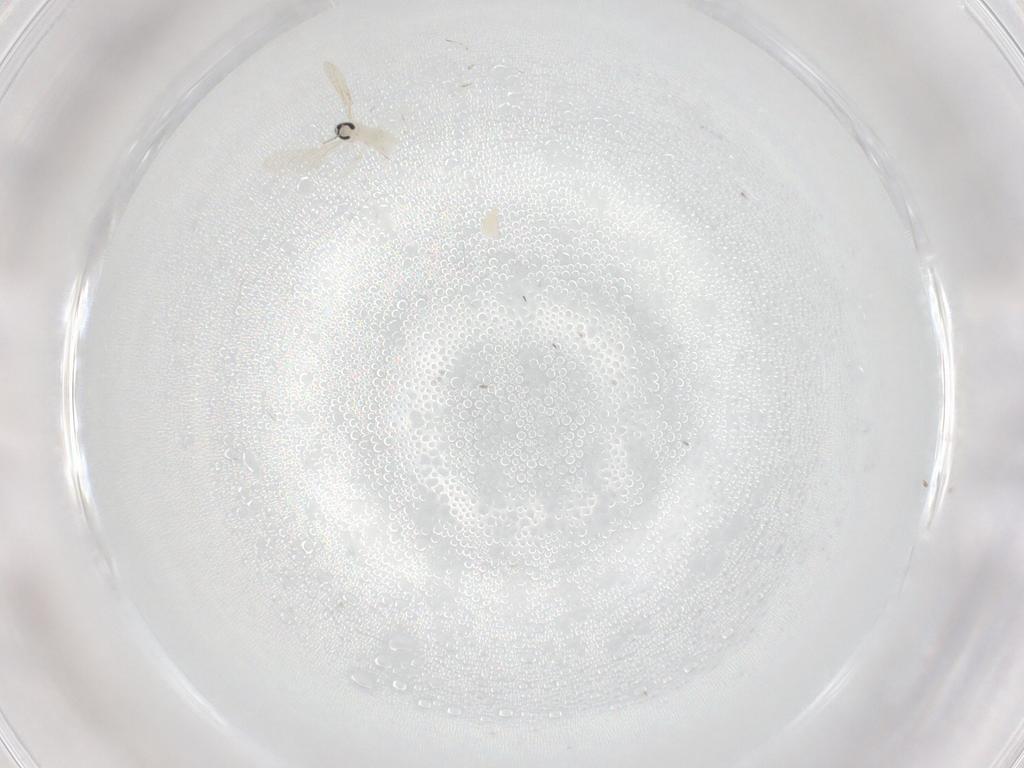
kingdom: Animalia
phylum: Arthropoda
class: Insecta
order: Diptera
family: Cecidomyiidae
